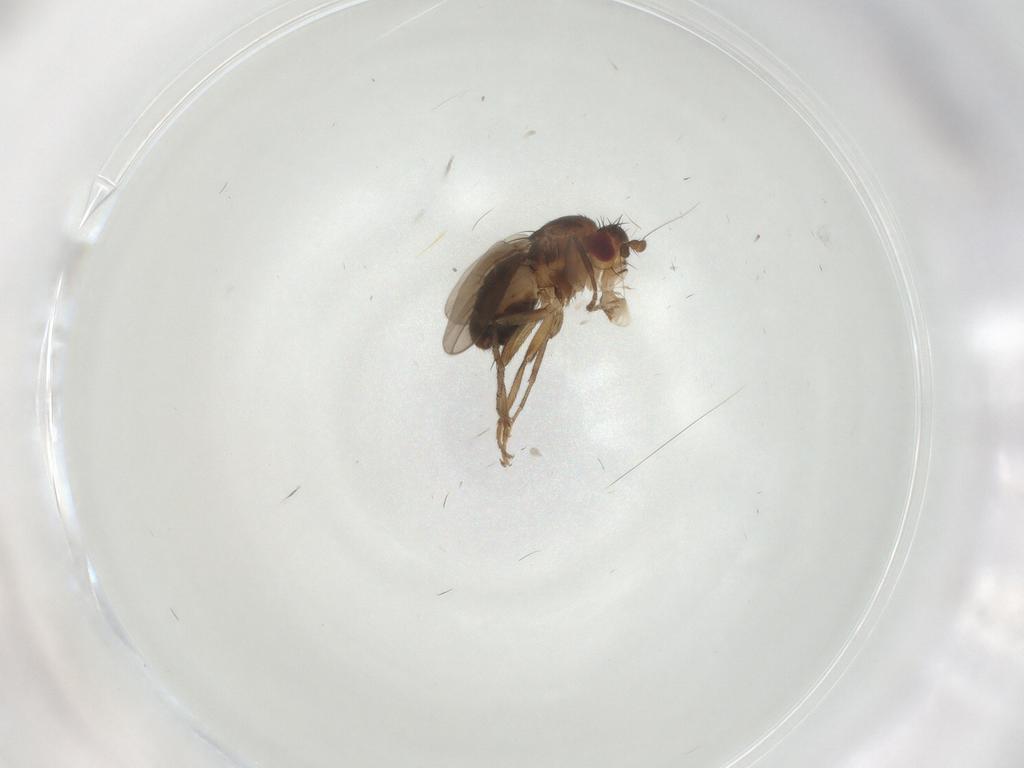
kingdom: Animalia
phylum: Arthropoda
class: Insecta
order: Diptera
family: Sphaeroceridae
